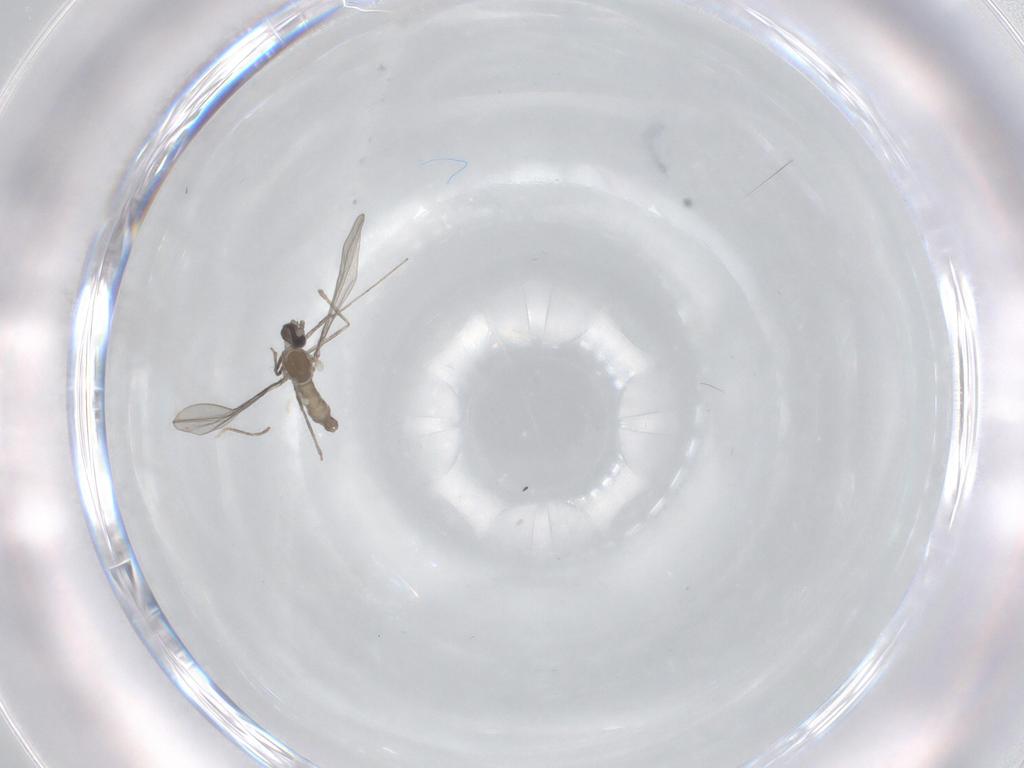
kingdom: Animalia
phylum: Arthropoda
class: Insecta
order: Diptera
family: Cecidomyiidae
